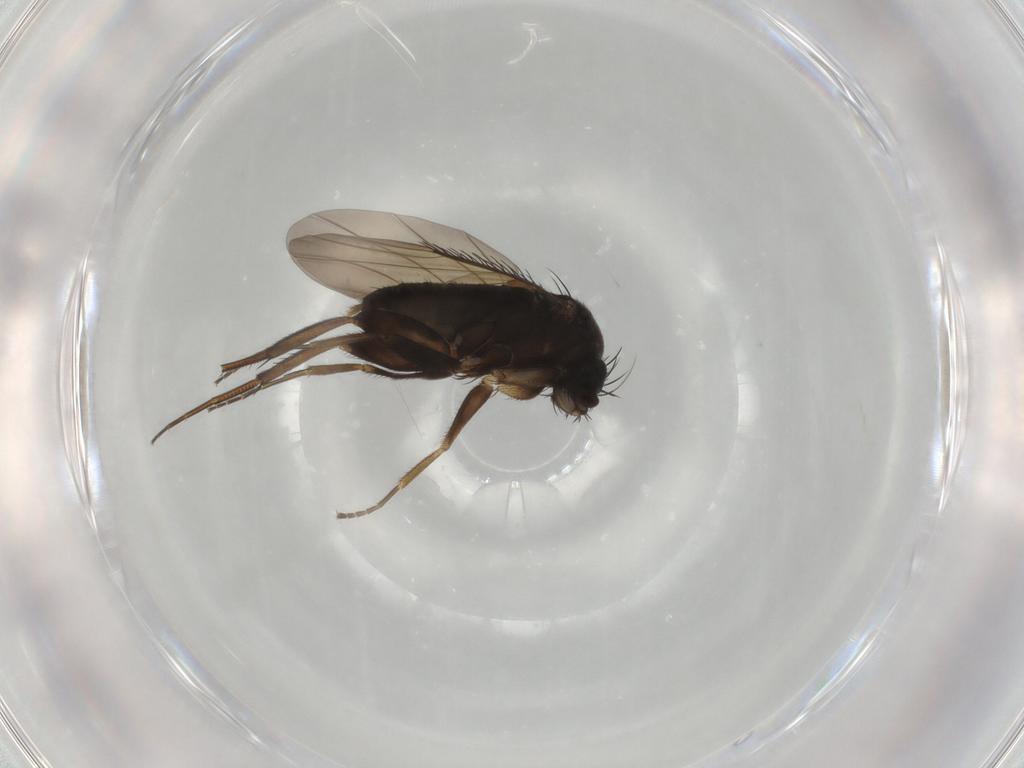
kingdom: Animalia
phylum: Arthropoda
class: Insecta
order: Diptera
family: Phoridae
